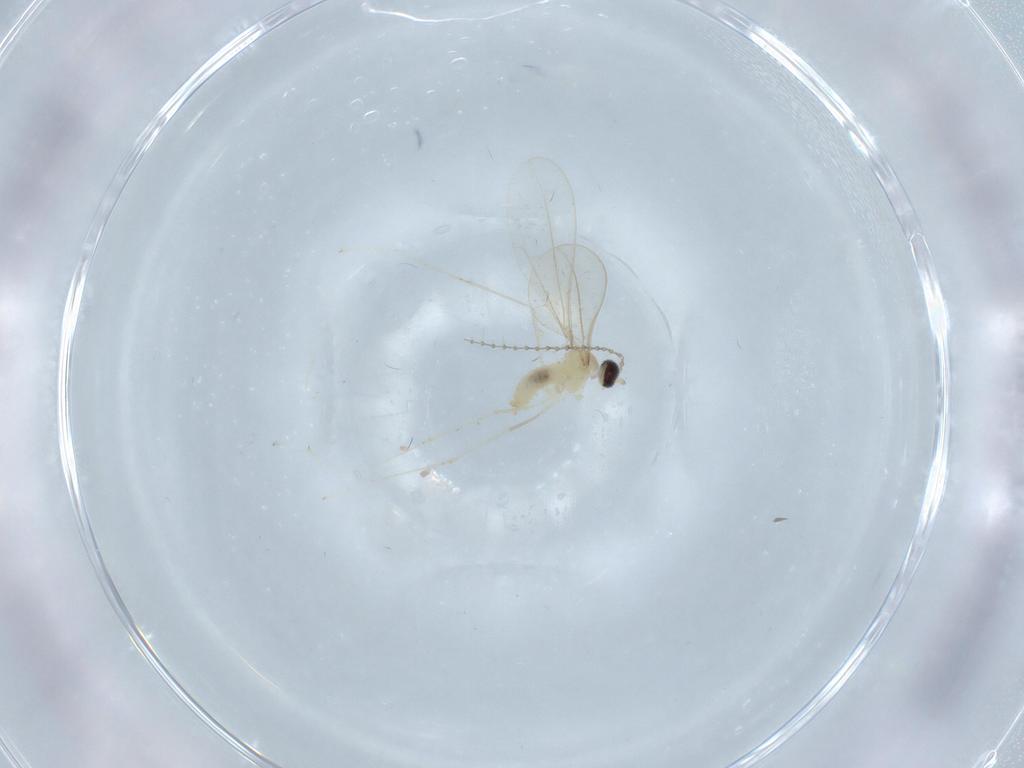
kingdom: Animalia
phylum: Arthropoda
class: Insecta
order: Diptera
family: Cecidomyiidae
